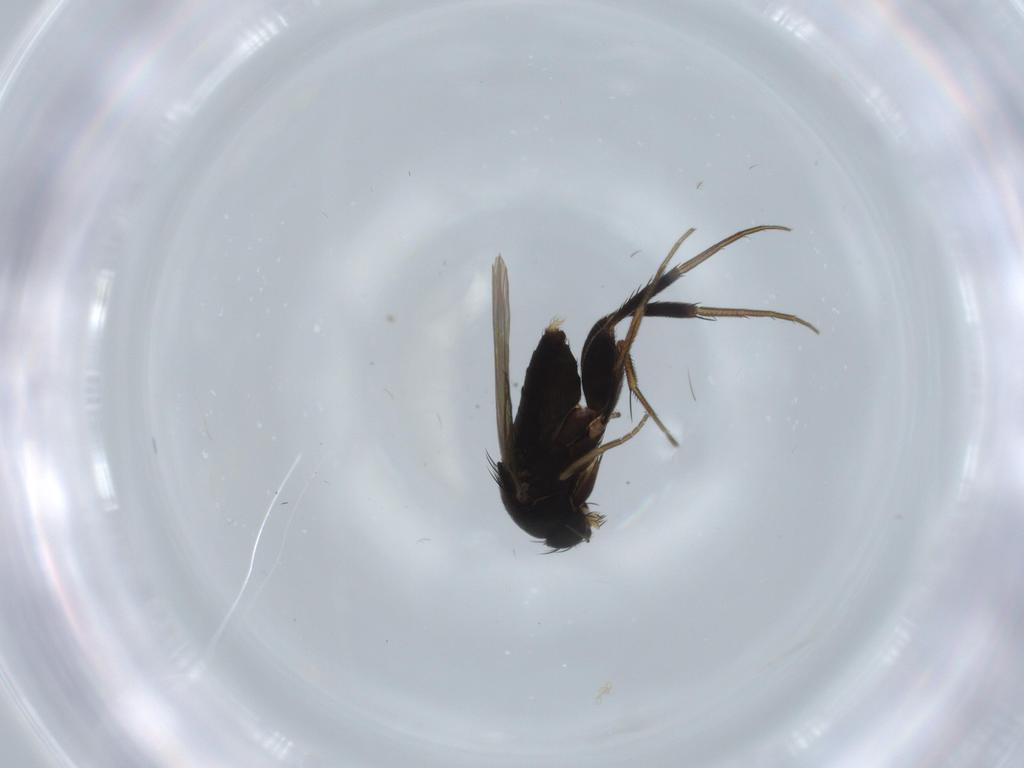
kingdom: Animalia
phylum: Arthropoda
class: Insecta
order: Diptera
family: Phoridae
